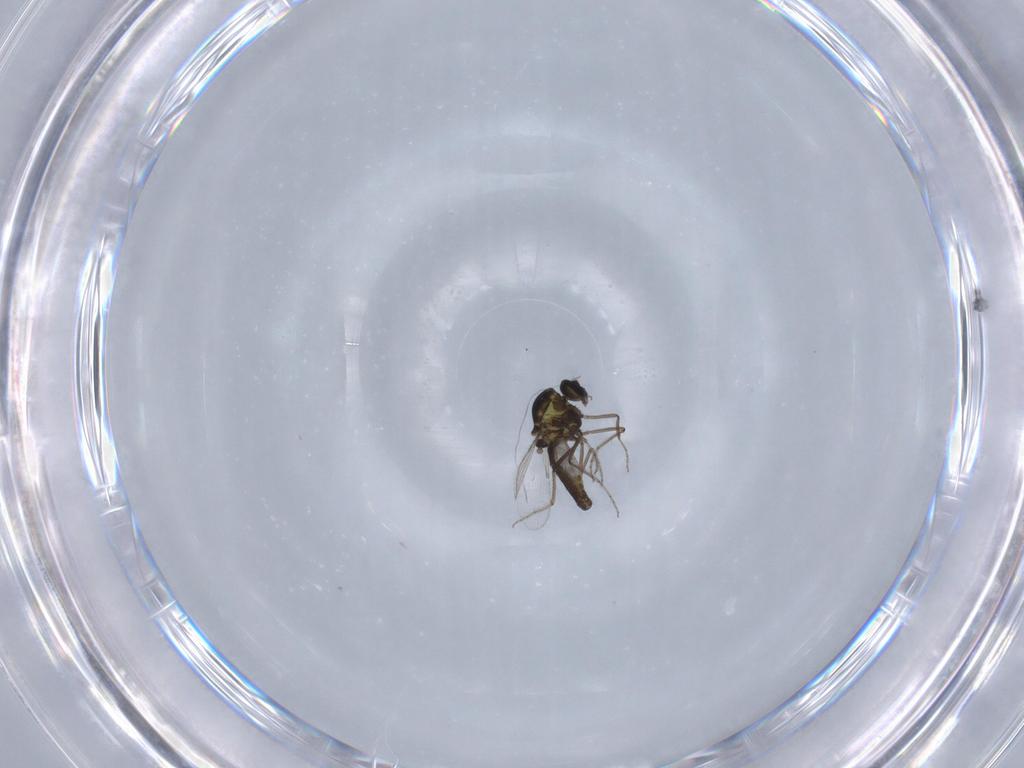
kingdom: Animalia
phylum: Arthropoda
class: Insecta
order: Diptera
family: Ceratopogonidae
